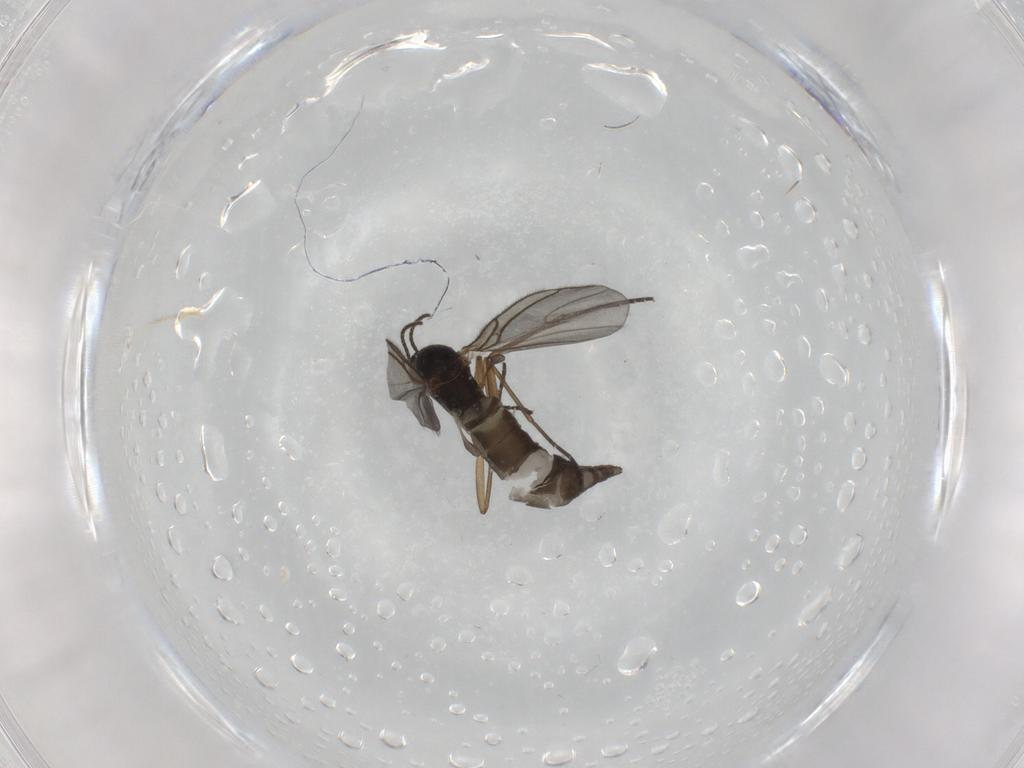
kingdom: Animalia
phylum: Arthropoda
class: Insecta
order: Diptera
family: Sciaridae
